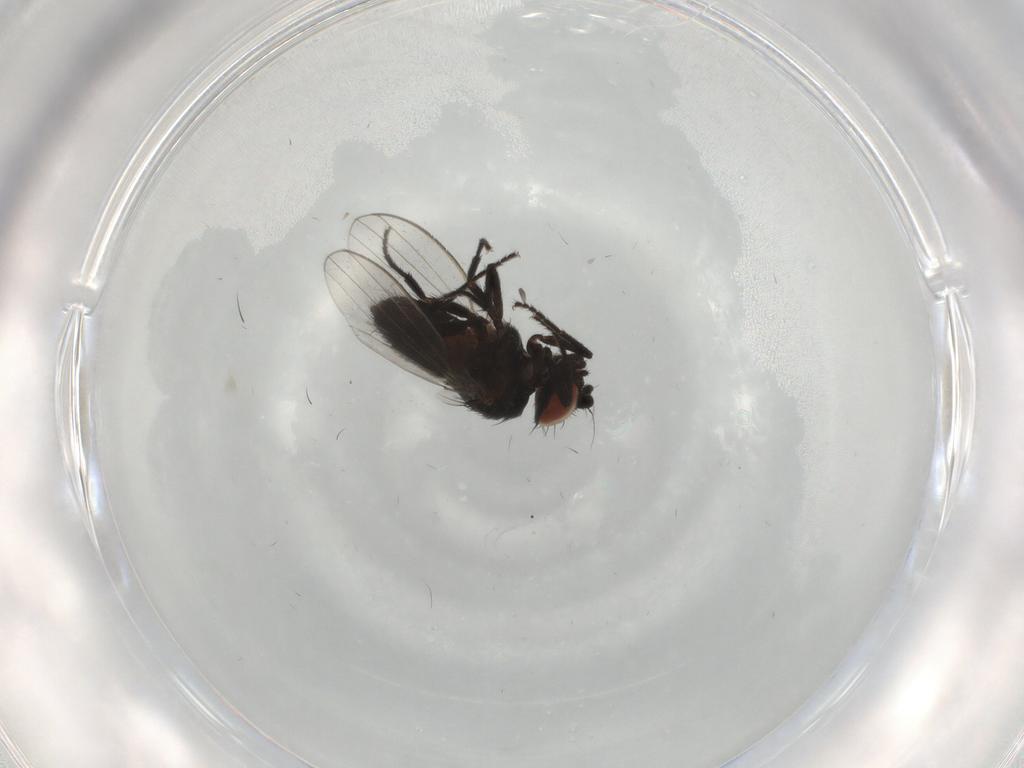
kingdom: Animalia
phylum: Arthropoda
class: Insecta
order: Diptera
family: Milichiidae
